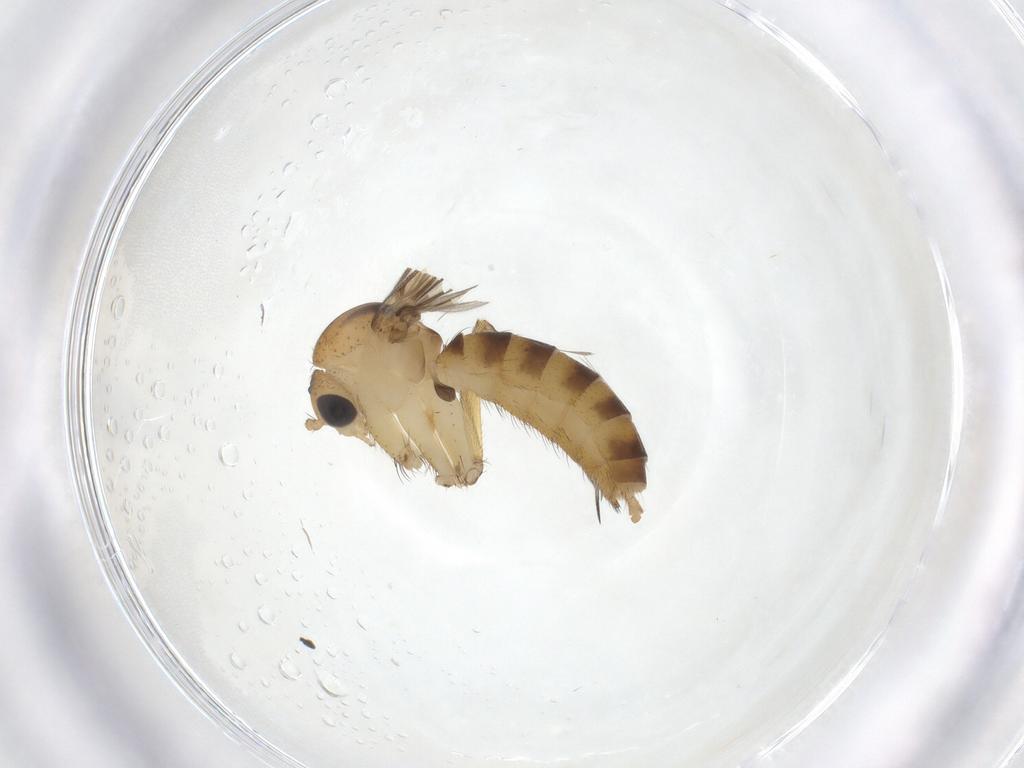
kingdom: Animalia
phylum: Arthropoda
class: Insecta
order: Diptera
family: Mycetophilidae
